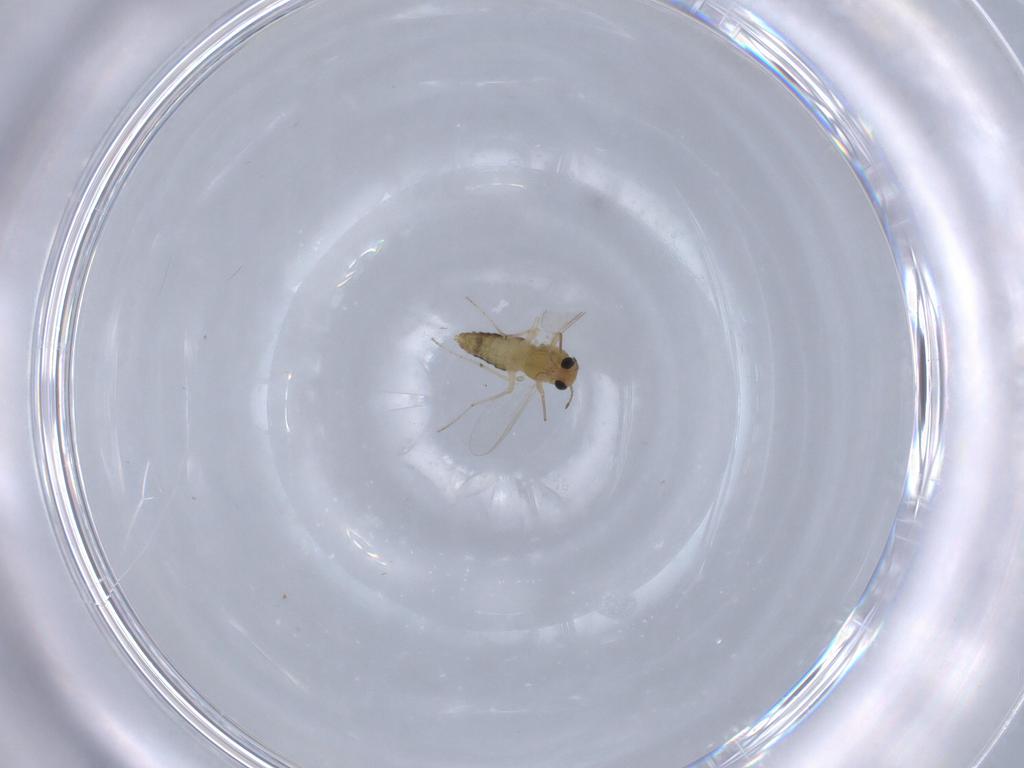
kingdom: Animalia
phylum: Arthropoda
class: Insecta
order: Diptera
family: Chironomidae
